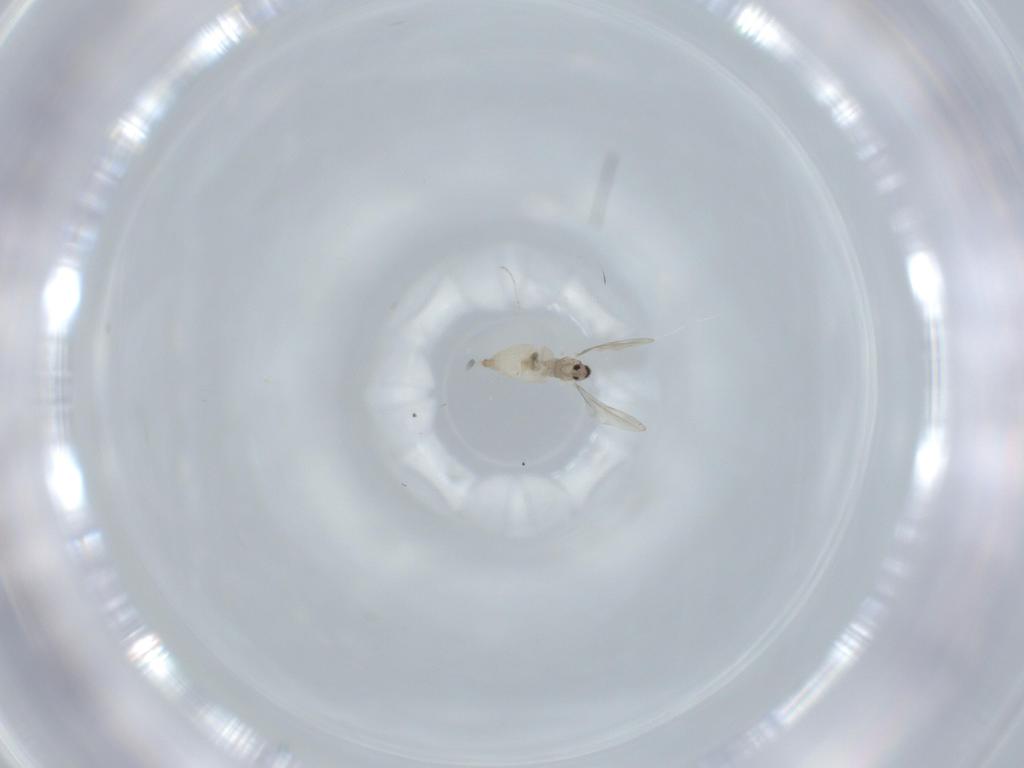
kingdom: Animalia
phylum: Arthropoda
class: Insecta
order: Diptera
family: Cecidomyiidae
